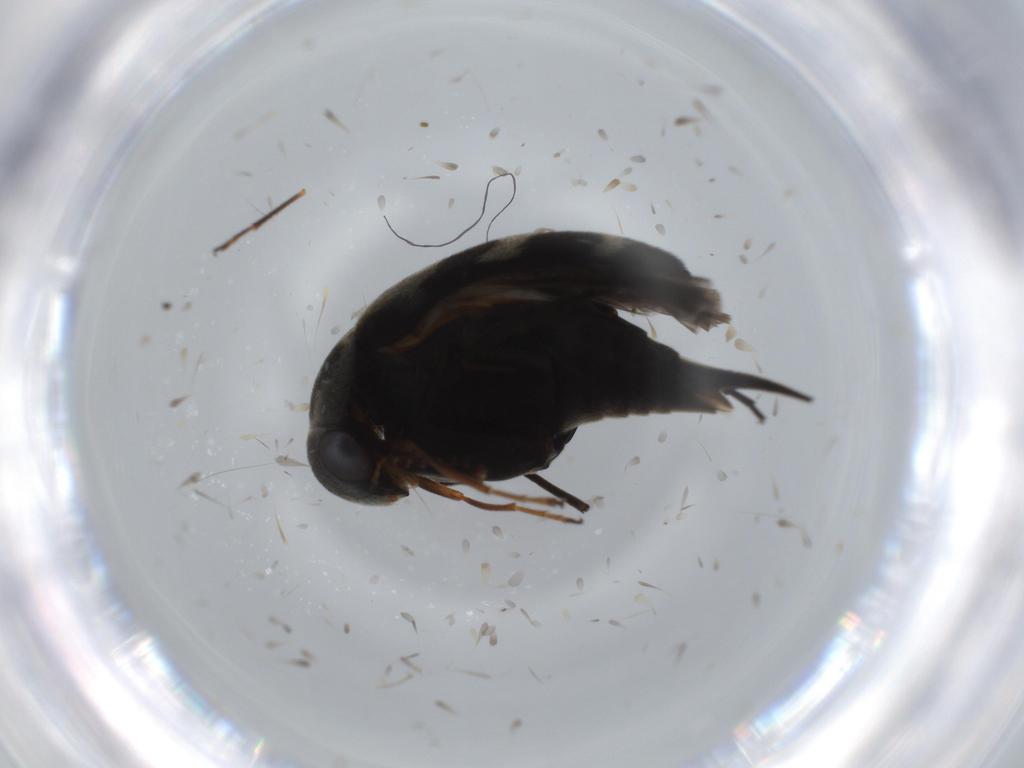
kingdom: Animalia
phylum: Arthropoda
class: Insecta
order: Coleoptera
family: Mordellidae
